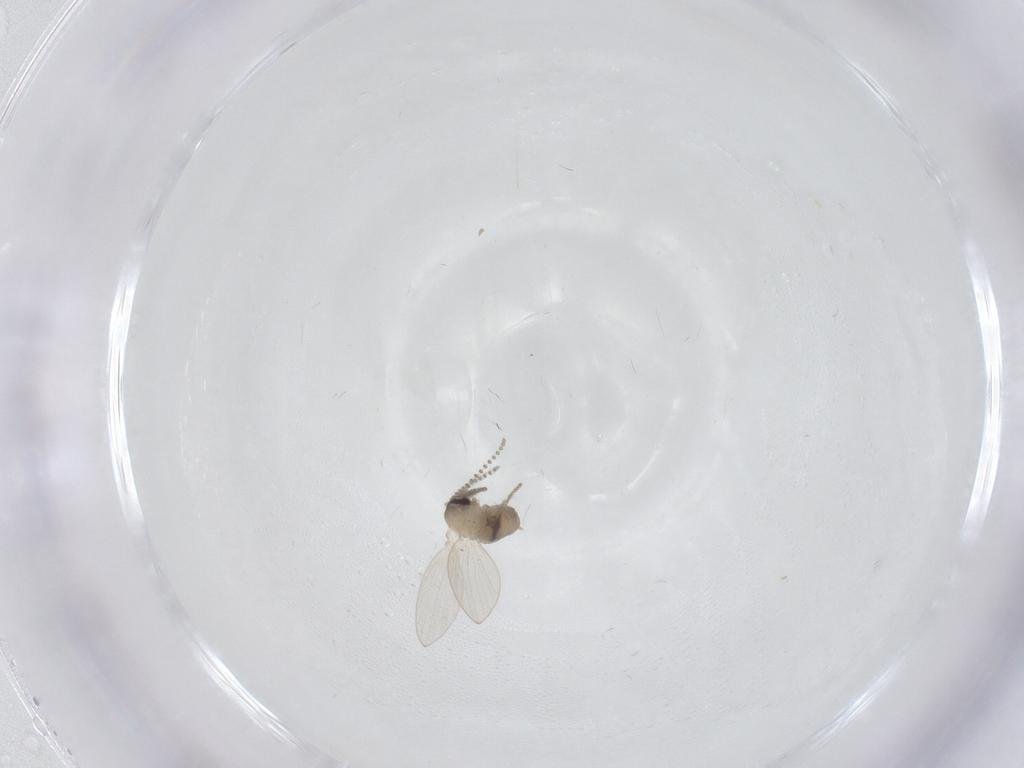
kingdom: Animalia
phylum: Arthropoda
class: Insecta
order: Diptera
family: Psychodidae
